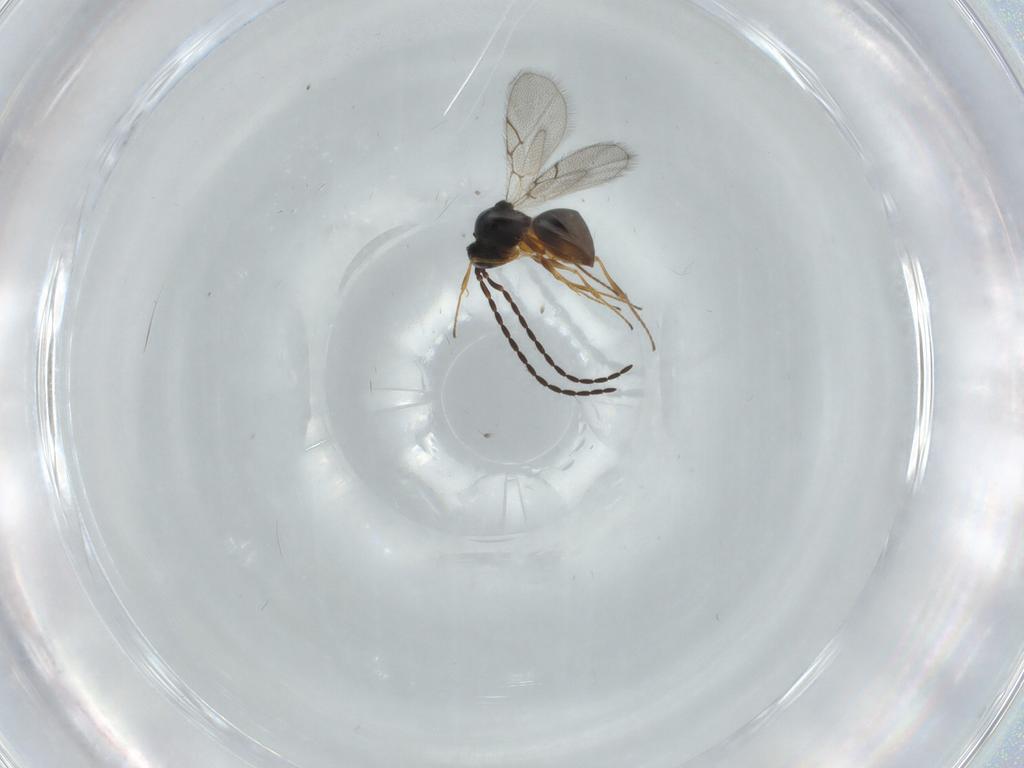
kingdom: Animalia
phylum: Arthropoda
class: Insecta
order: Hymenoptera
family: Figitidae
